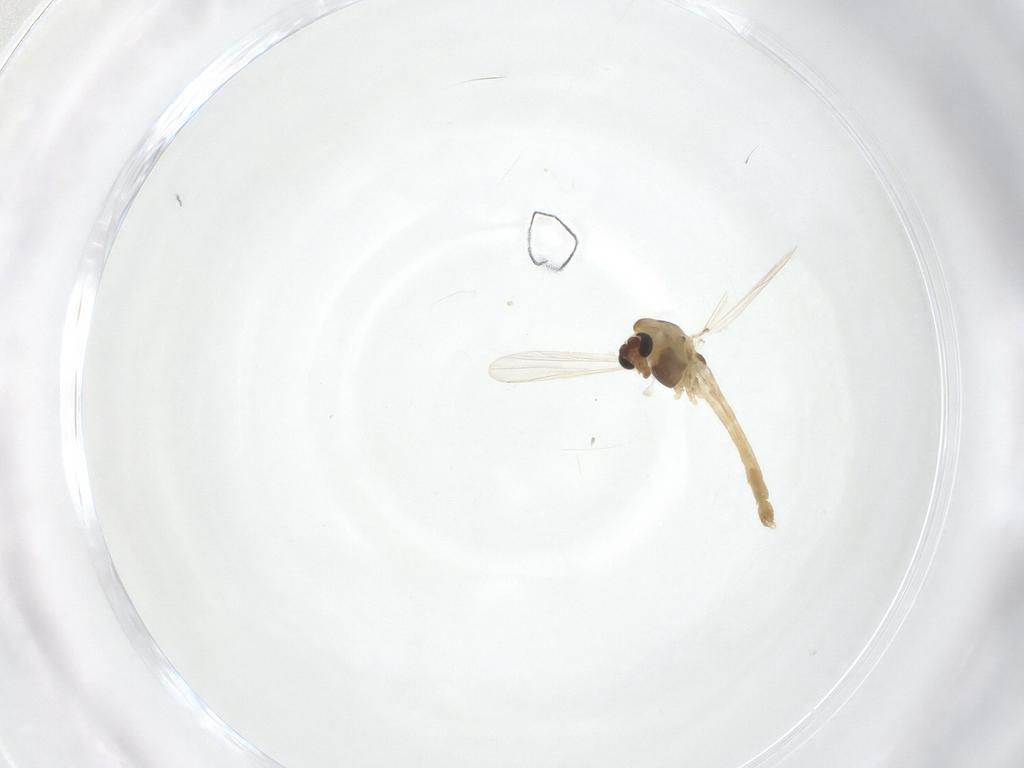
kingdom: Animalia
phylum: Arthropoda
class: Insecta
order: Diptera
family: Chironomidae
